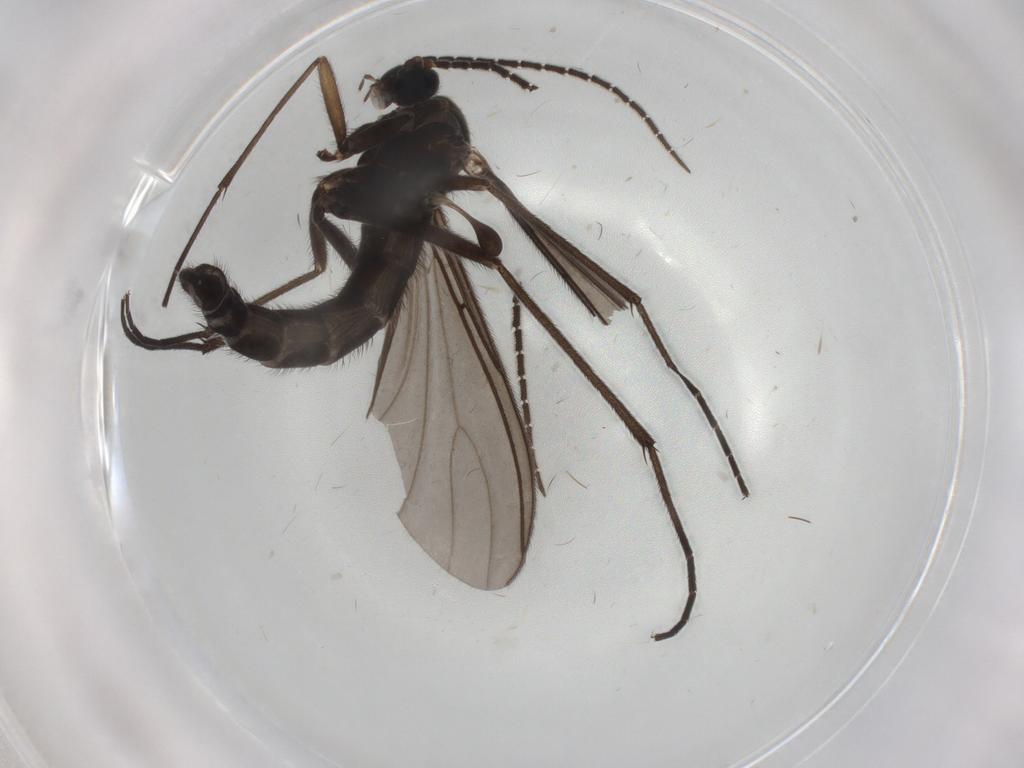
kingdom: Animalia
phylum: Arthropoda
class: Insecta
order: Diptera
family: Sciaridae
